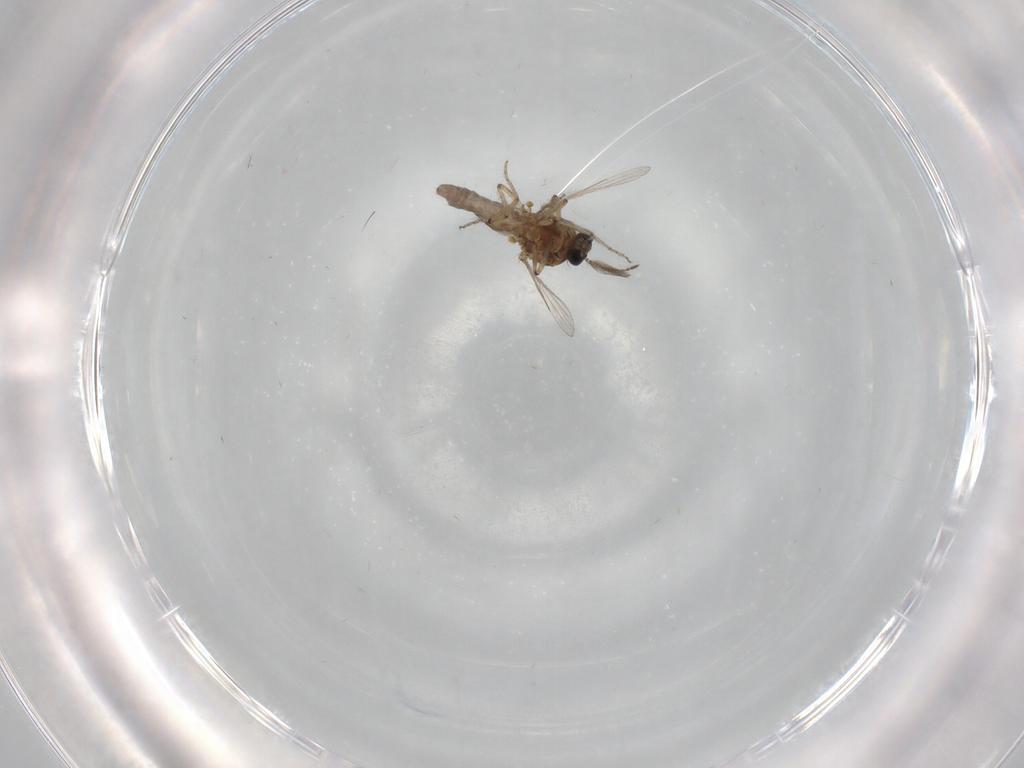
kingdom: Animalia
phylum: Arthropoda
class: Insecta
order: Diptera
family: Ceratopogonidae
